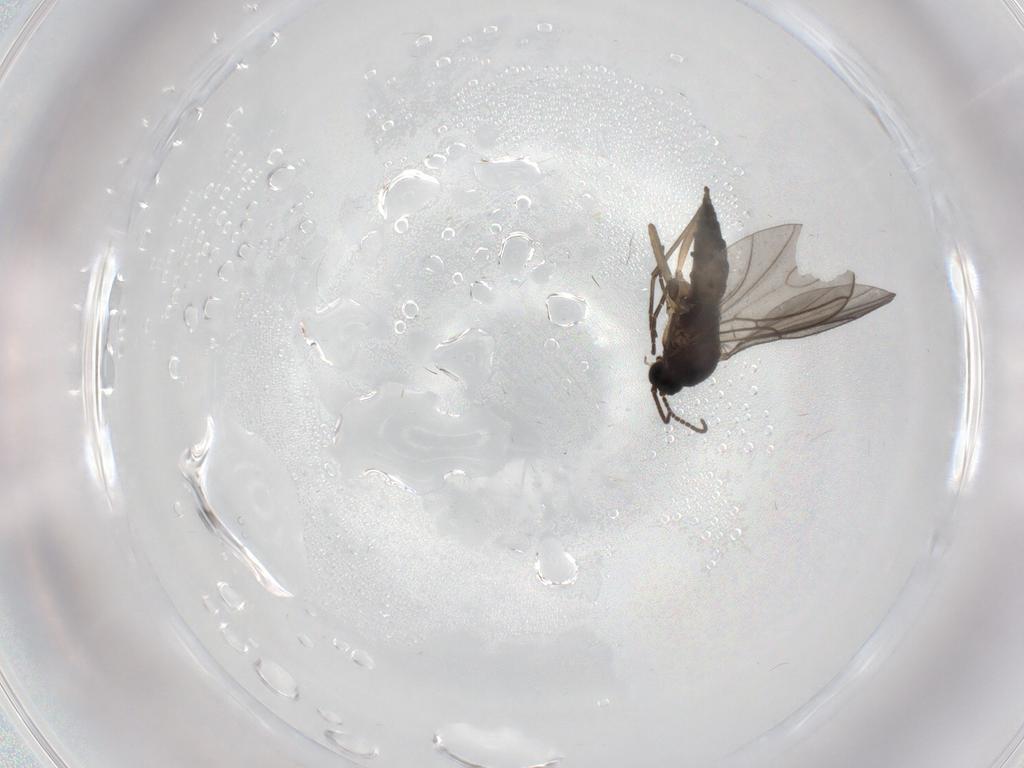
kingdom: Animalia
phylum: Arthropoda
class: Insecta
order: Diptera
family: Sciaridae
